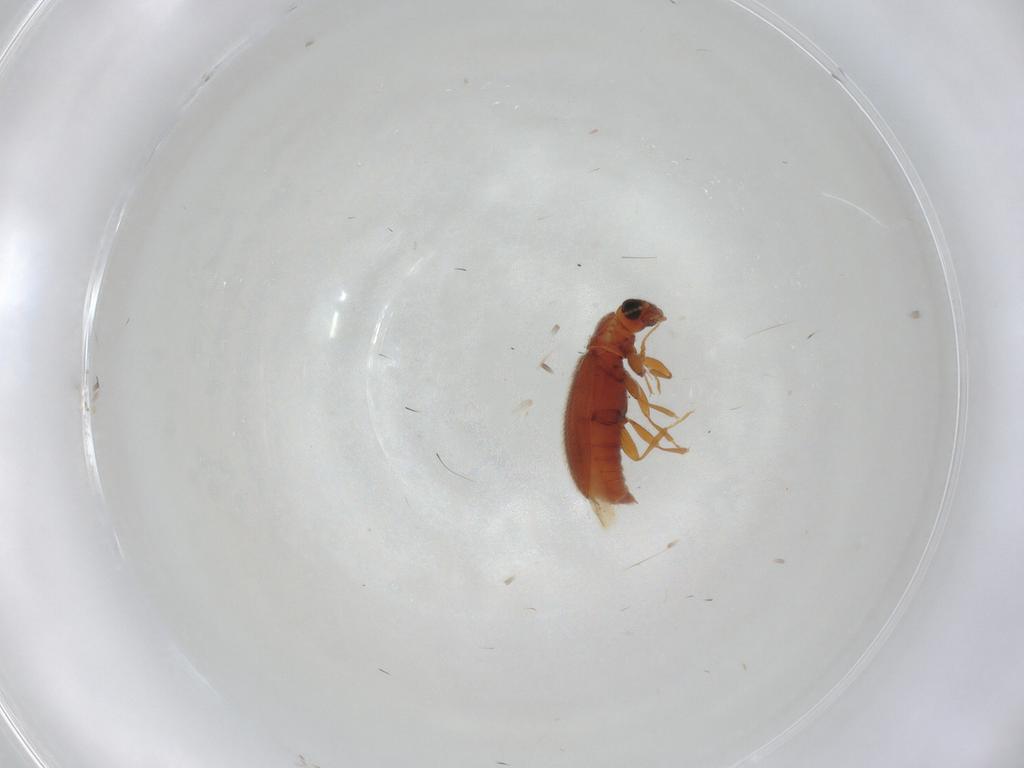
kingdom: Animalia
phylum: Arthropoda
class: Insecta
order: Coleoptera
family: Latridiidae
